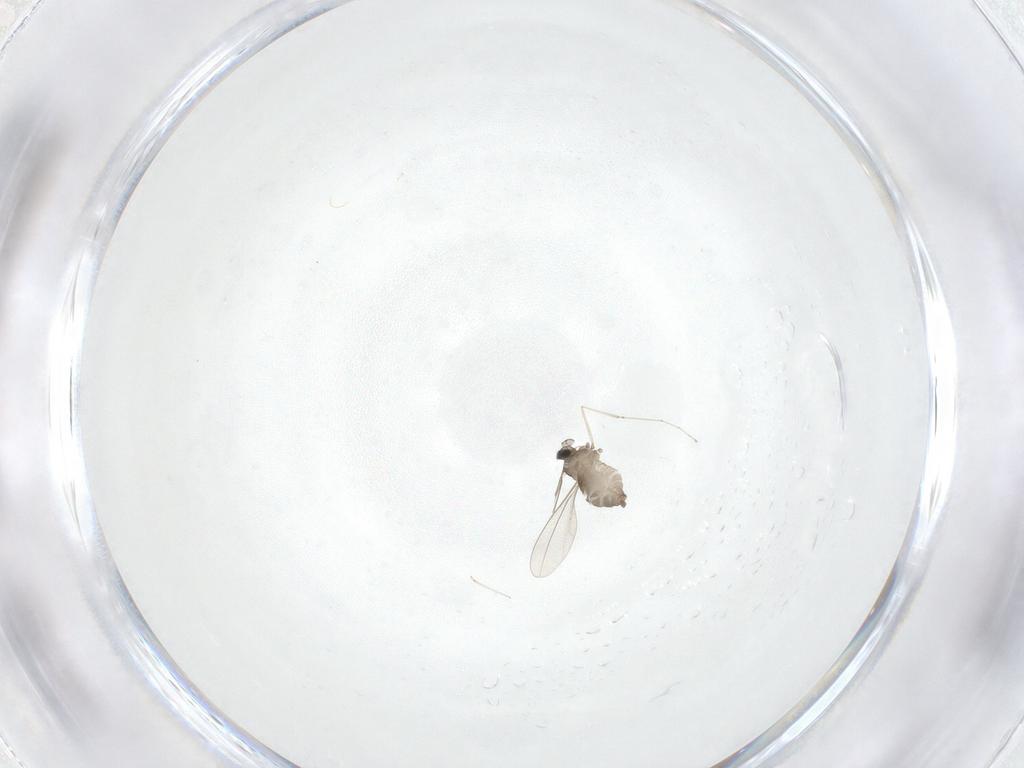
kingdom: Animalia
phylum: Arthropoda
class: Insecta
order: Diptera
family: Cecidomyiidae
